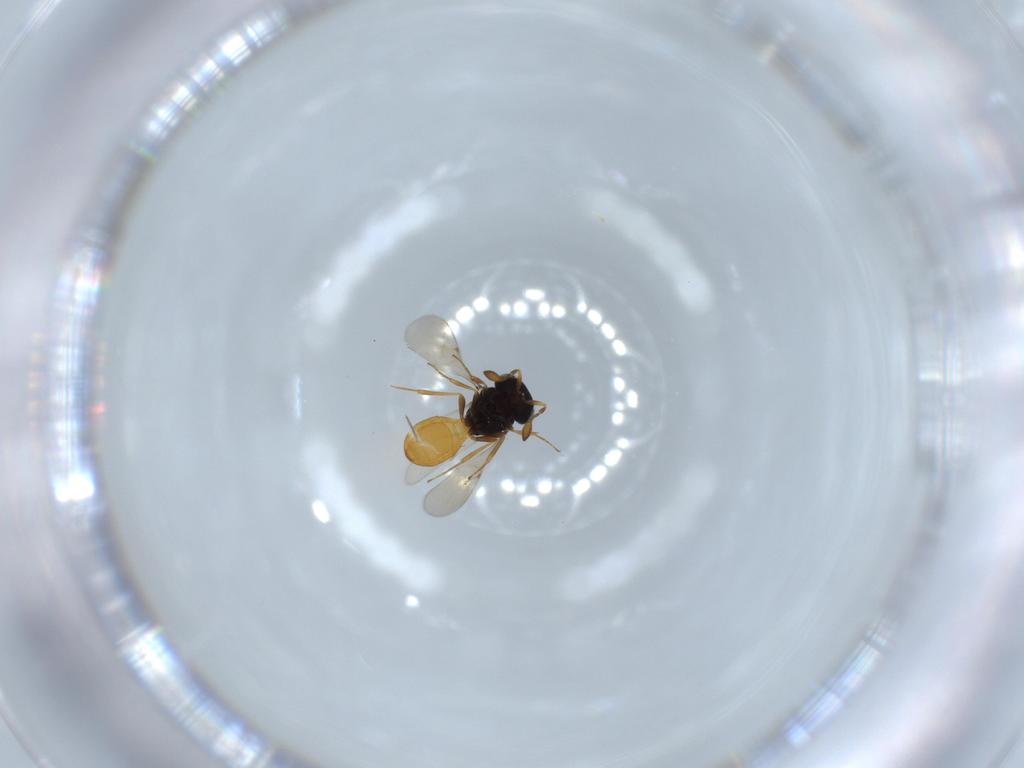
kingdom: Animalia
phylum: Arthropoda
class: Insecta
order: Hymenoptera
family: Scelionidae
